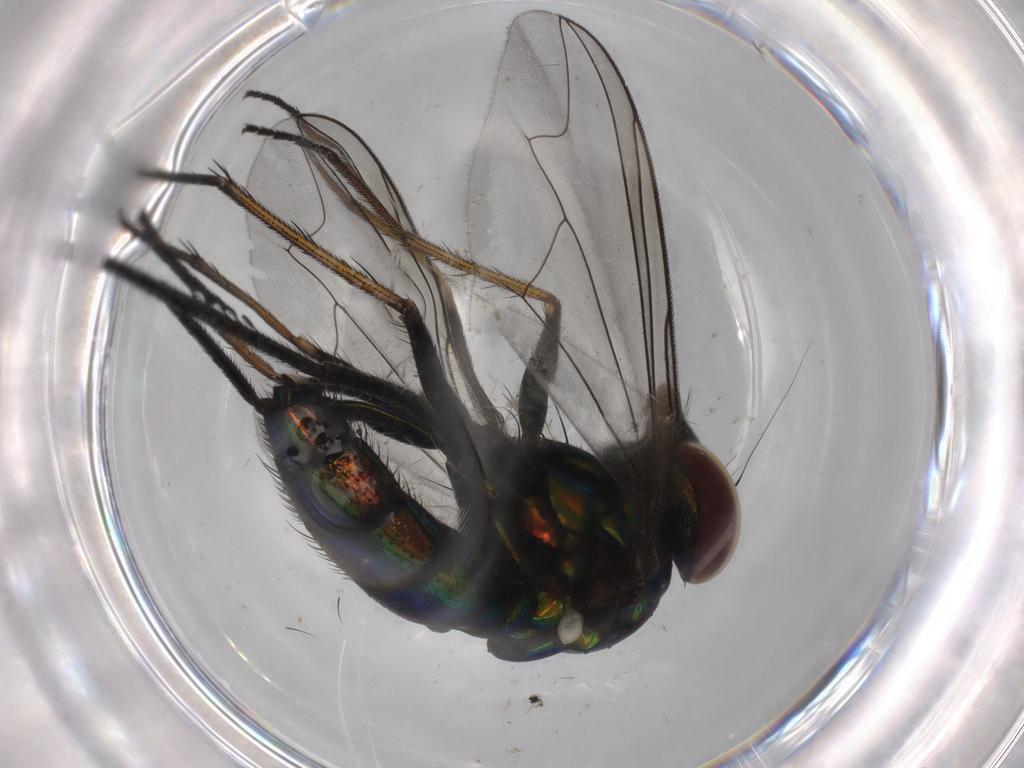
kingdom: Animalia
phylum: Arthropoda
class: Insecta
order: Diptera
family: Dolichopodidae
